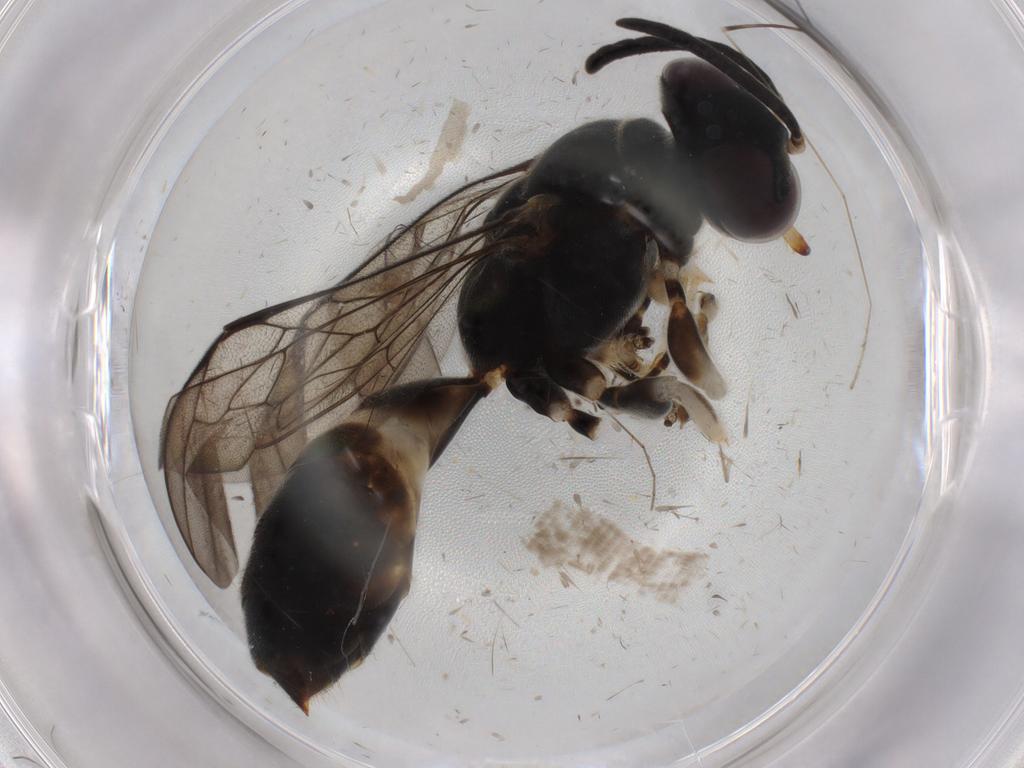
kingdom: Animalia
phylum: Arthropoda
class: Insecta
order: Hymenoptera
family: Crabronidae
